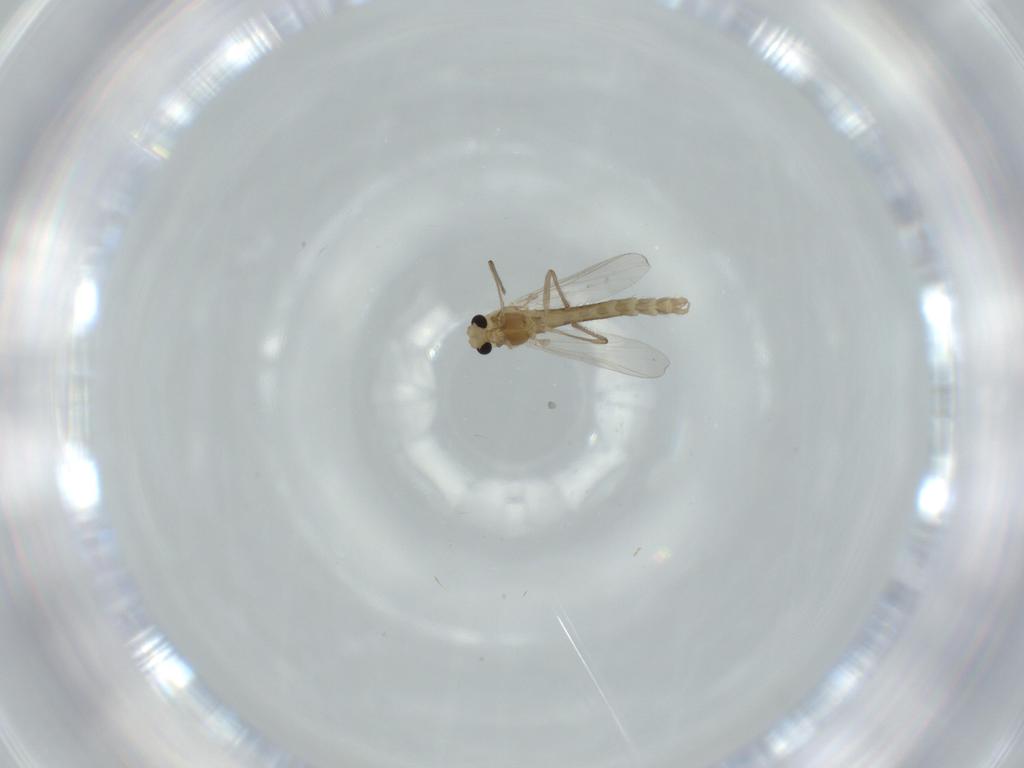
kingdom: Animalia
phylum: Arthropoda
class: Insecta
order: Diptera
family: Chironomidae
